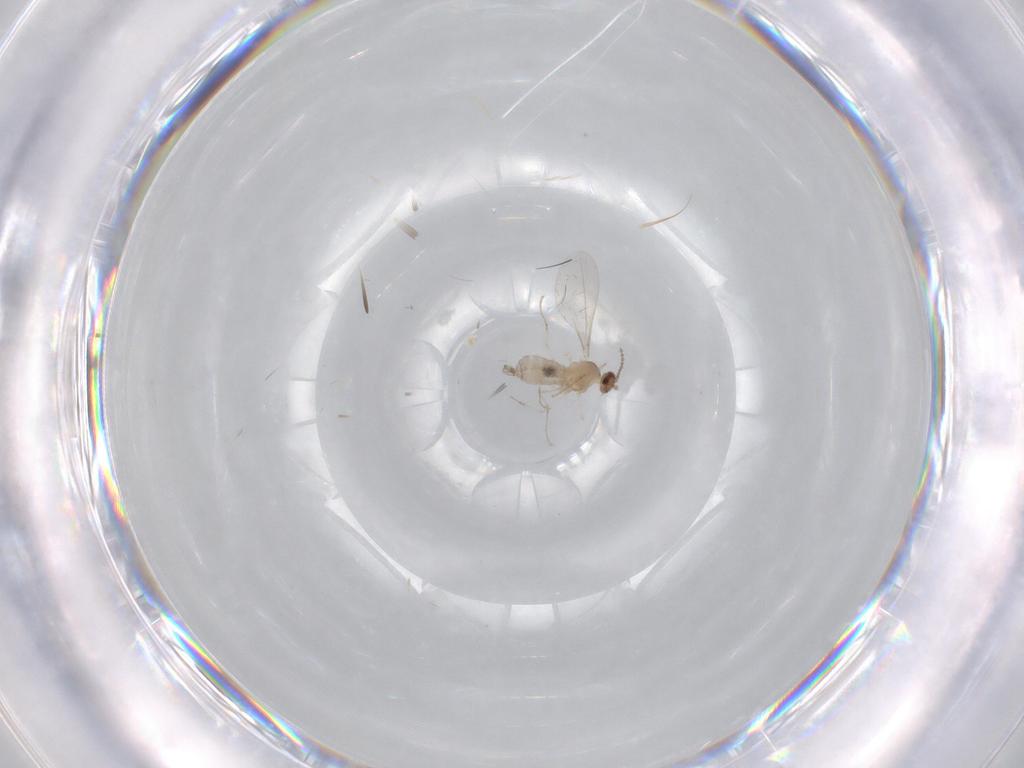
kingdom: Animalia
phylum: Arthropoda
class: Insecta
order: Diptera
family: Cecidomyiidae
